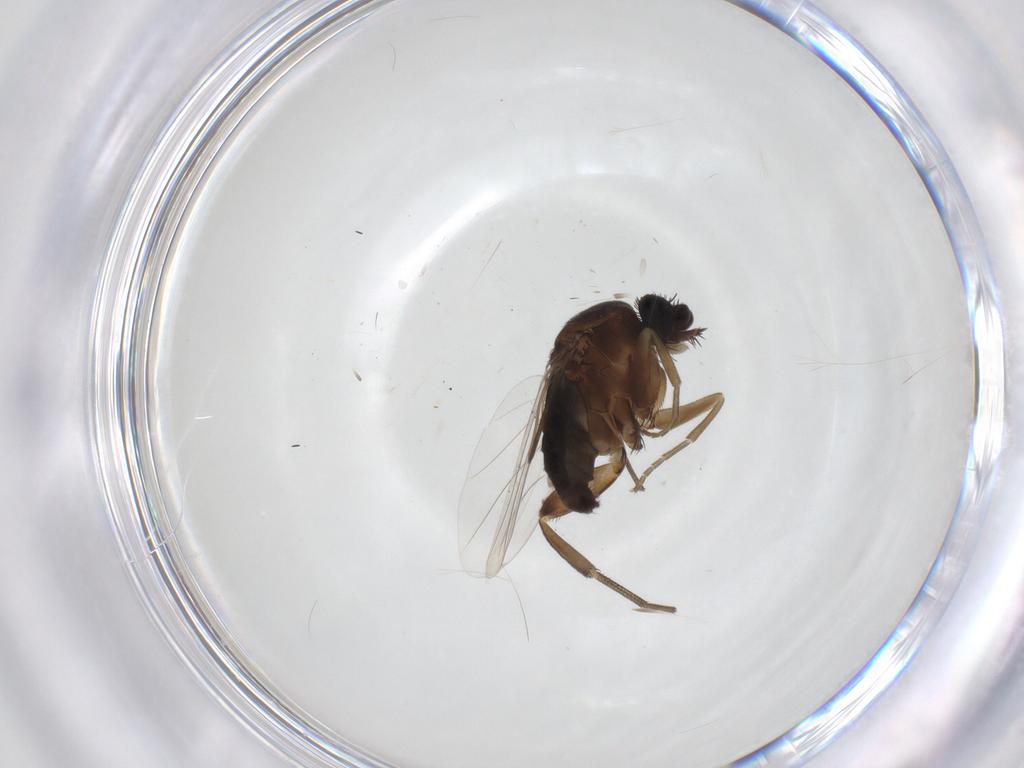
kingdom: Animalia
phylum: Arthropoda
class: Insecta
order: Diptera
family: Phoridae
